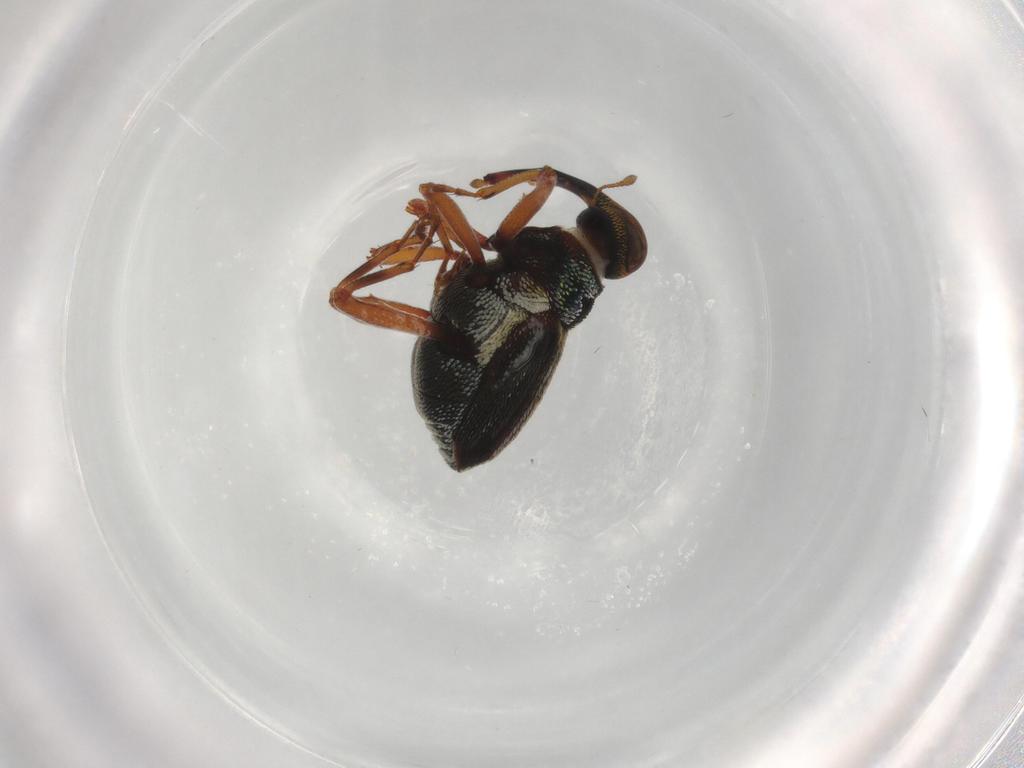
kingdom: Animalia
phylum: Arthropoda
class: Insecta
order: Coleoptera
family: Curculionidae
